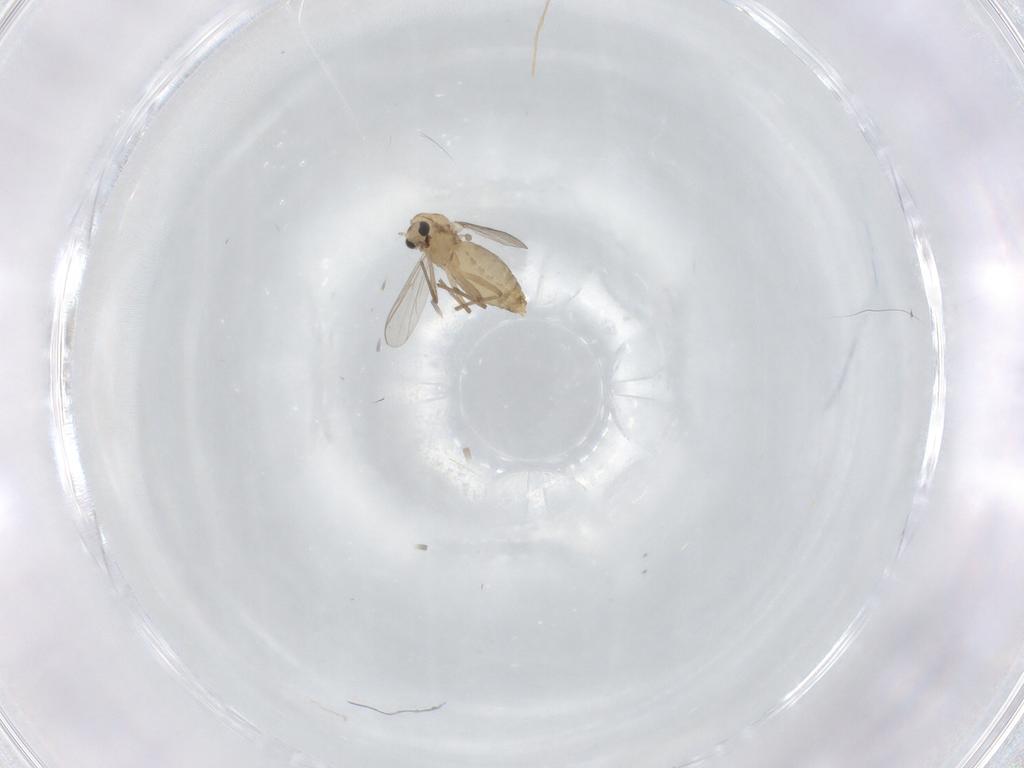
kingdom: Animalia
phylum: Arthropoda
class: Insecta
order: Diptera
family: Chironomidae
